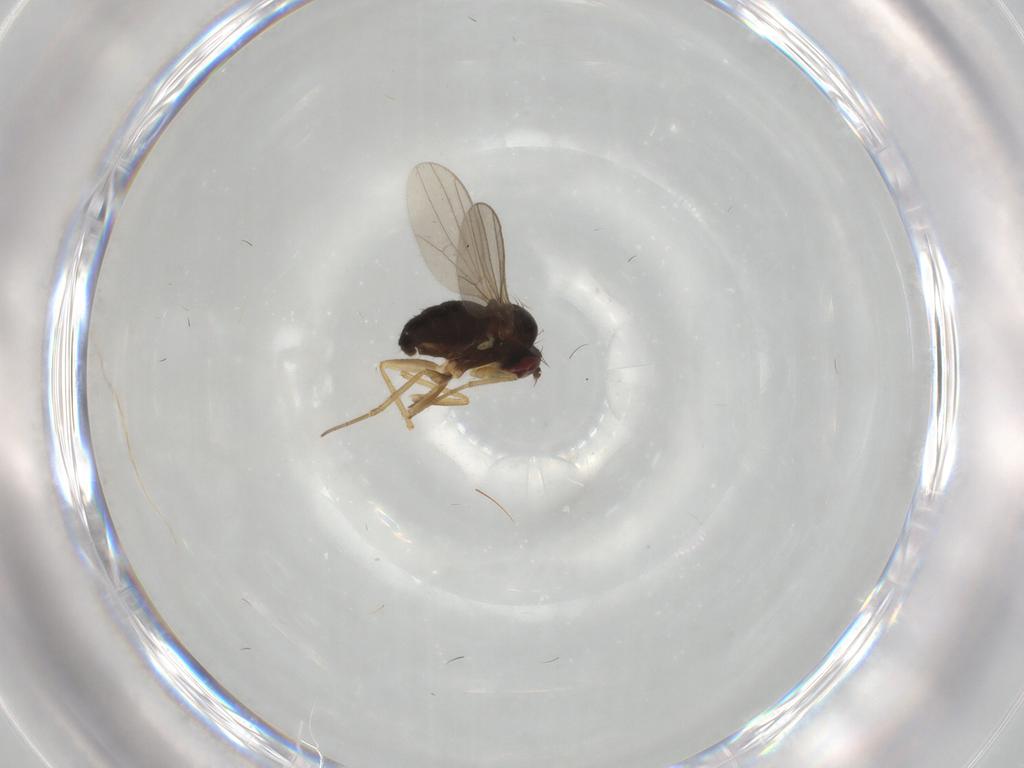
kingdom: Animalia
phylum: Arthropoda
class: Insecta
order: Diptera
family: Dolichopodidae
